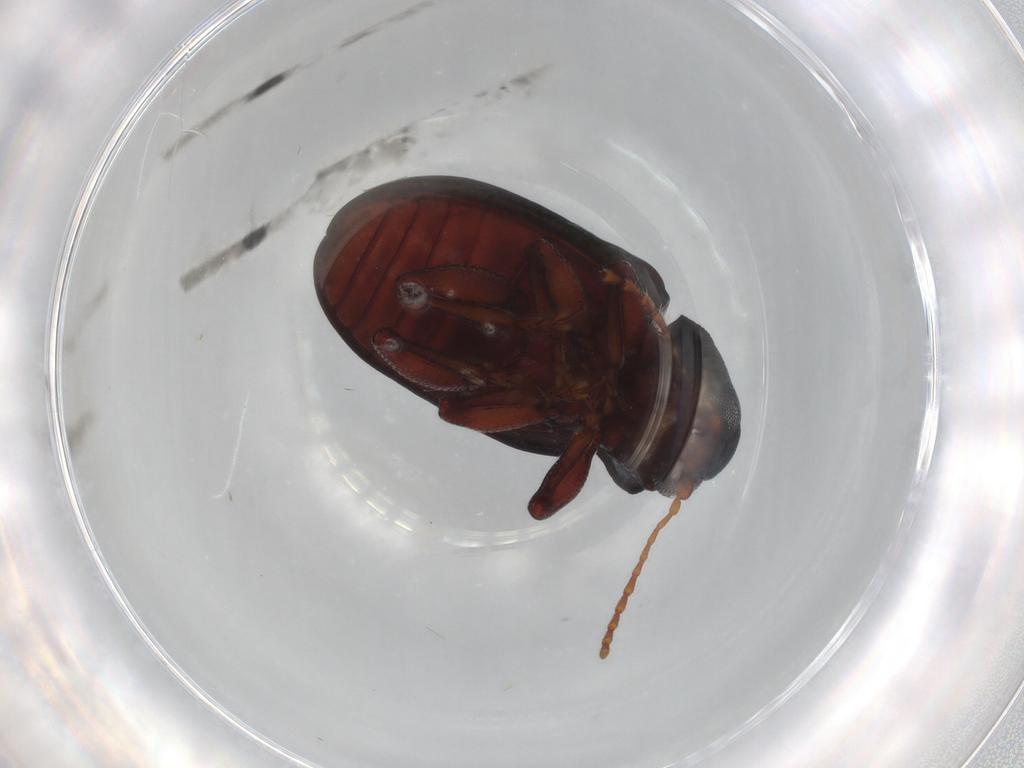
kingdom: Animalia
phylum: Arthropoda
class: Insecta
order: Coleoptera
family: Chrysomelidae
